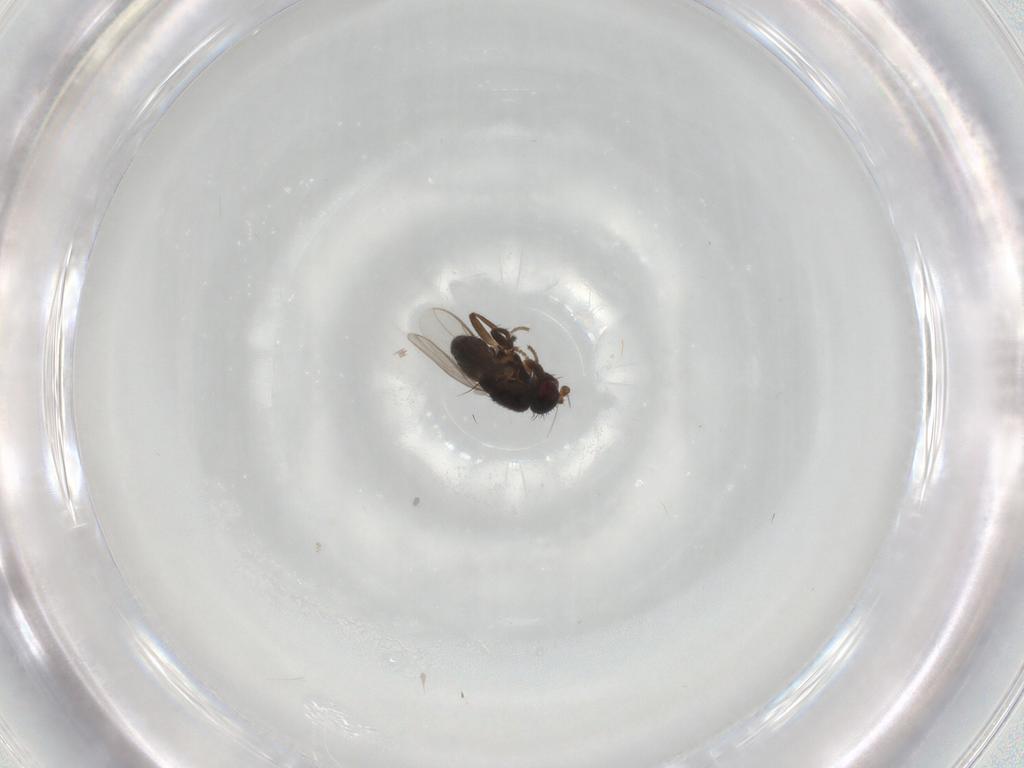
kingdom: Animalia
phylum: Arthropoda
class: Insecta
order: Diptera
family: Sphaeroceridae
